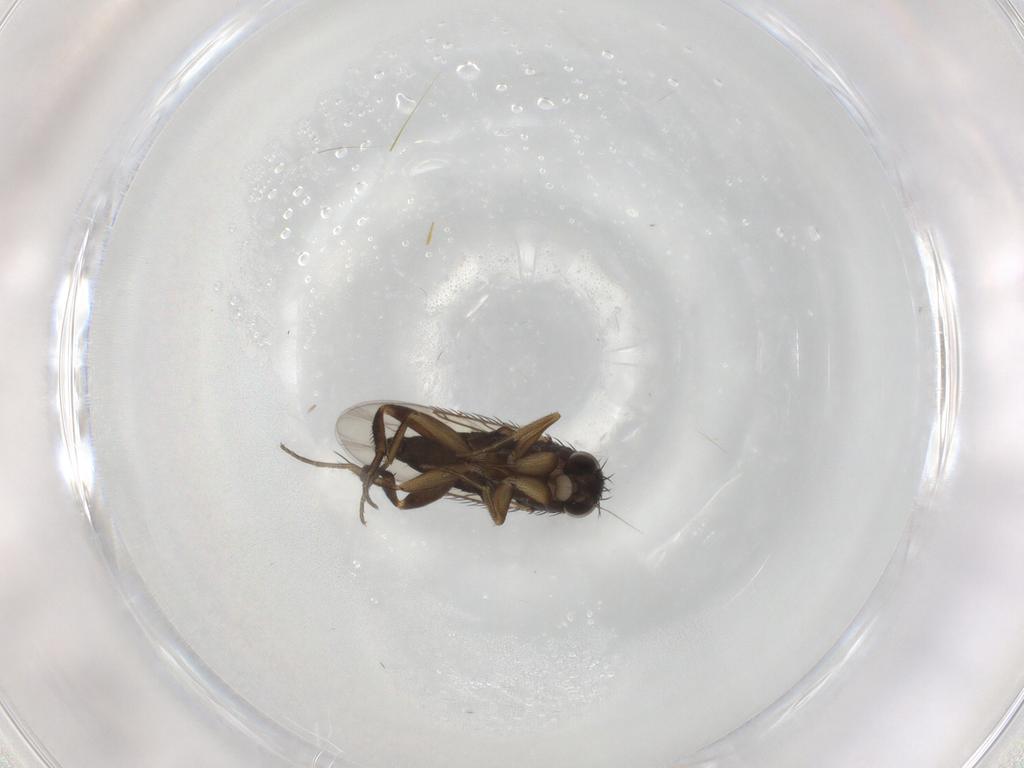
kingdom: Animalia
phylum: Arthropoda
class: Insecta
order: Diptera
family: Phoridae
